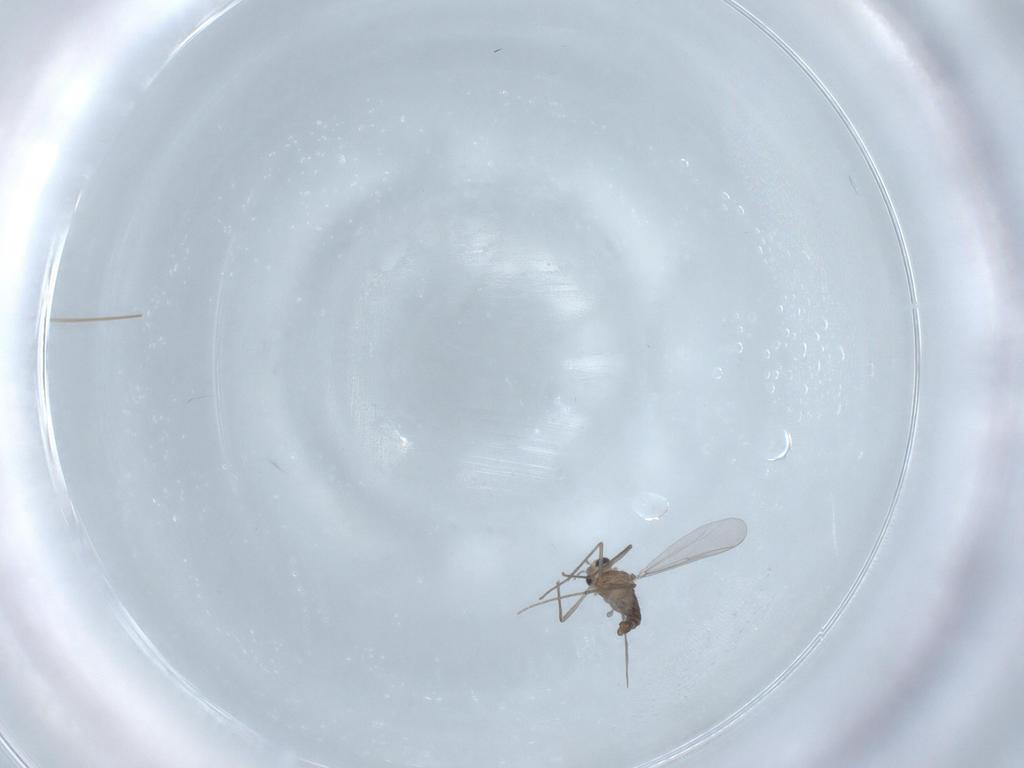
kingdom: Animalia
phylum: Arthropoda
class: Insecta
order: Diptera
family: Chironomidae
